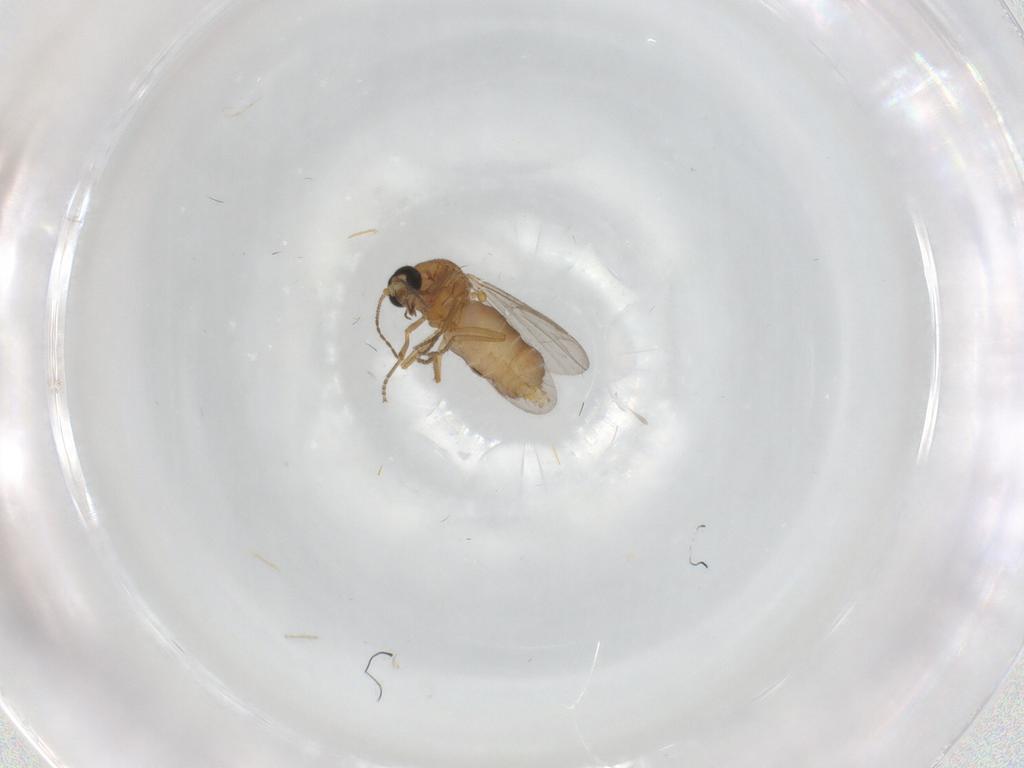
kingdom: Animalia
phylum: Arthropoda
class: Insecta
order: Diptera
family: Ceratopogonidae
